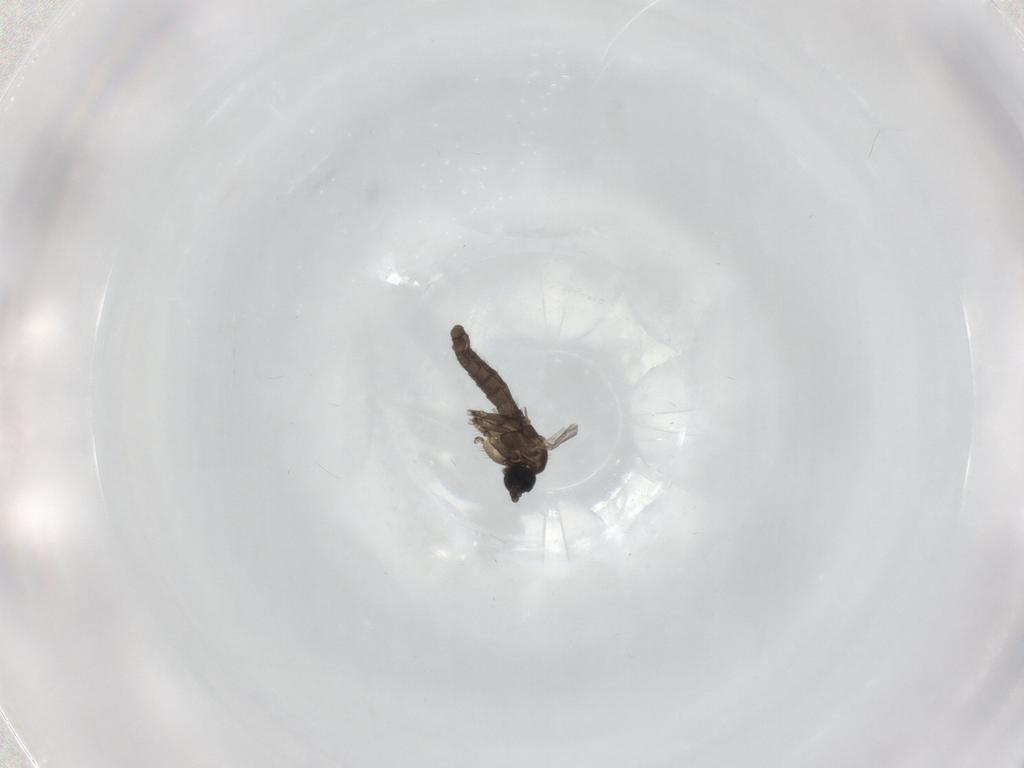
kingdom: Animalia
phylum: Arthropoda
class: Insecta
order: Diptera
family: Sciaridae
